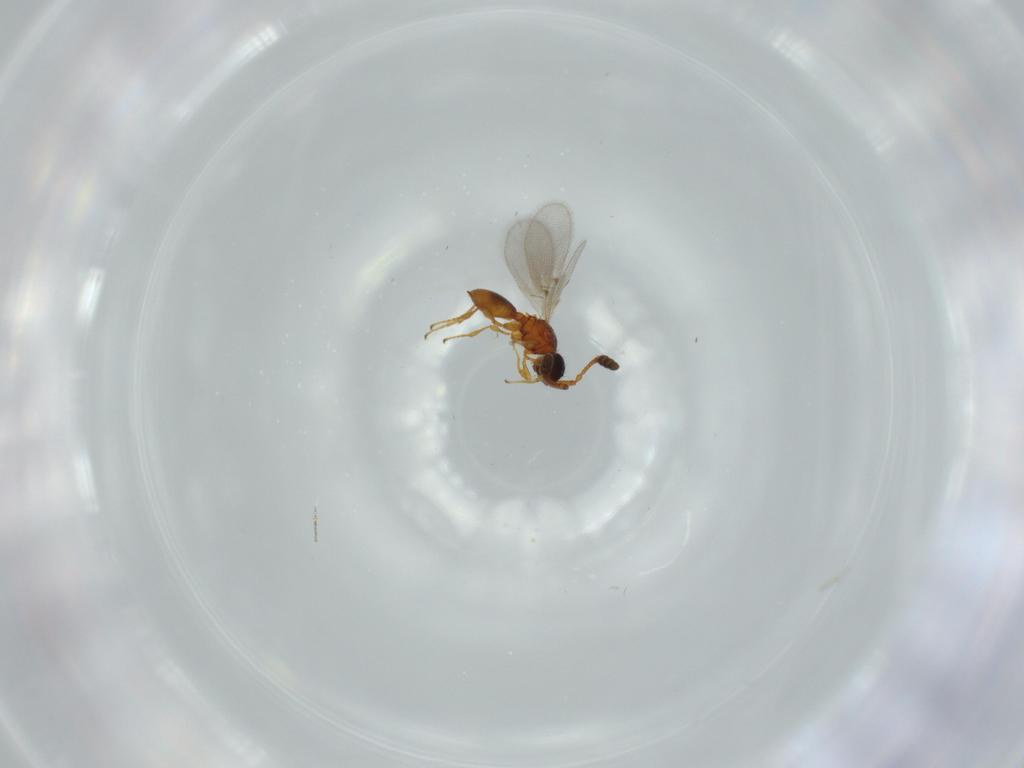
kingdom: Animalia
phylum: Arthropoda
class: Insecta
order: Hymenoptera
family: Diapriidae
